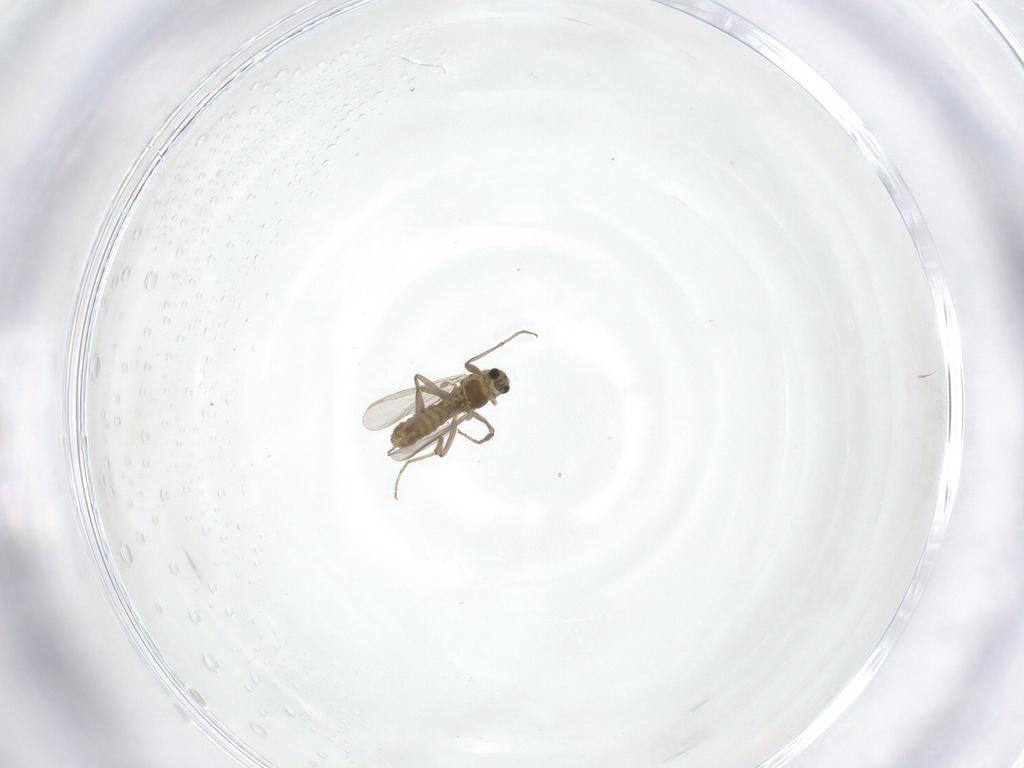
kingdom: Animalia
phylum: Arthropoda
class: Insecta
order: Diptera
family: Chironomidae
